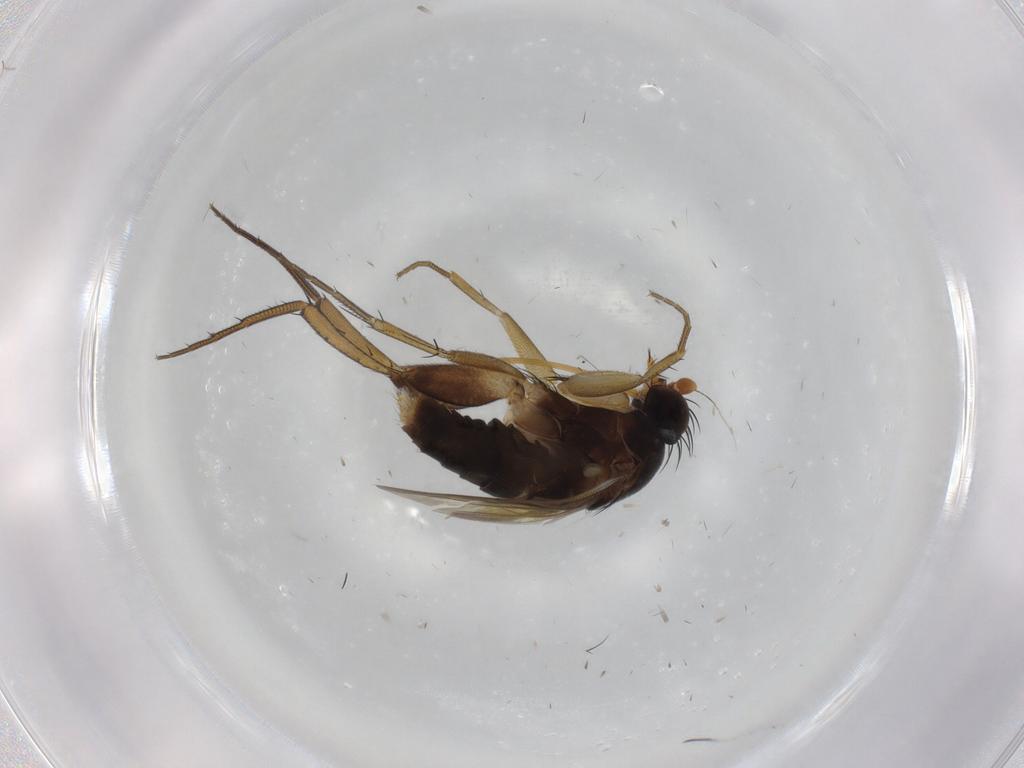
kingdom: Animalia
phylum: Arthropoda
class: Insecta
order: Diptera
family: Phoridae
